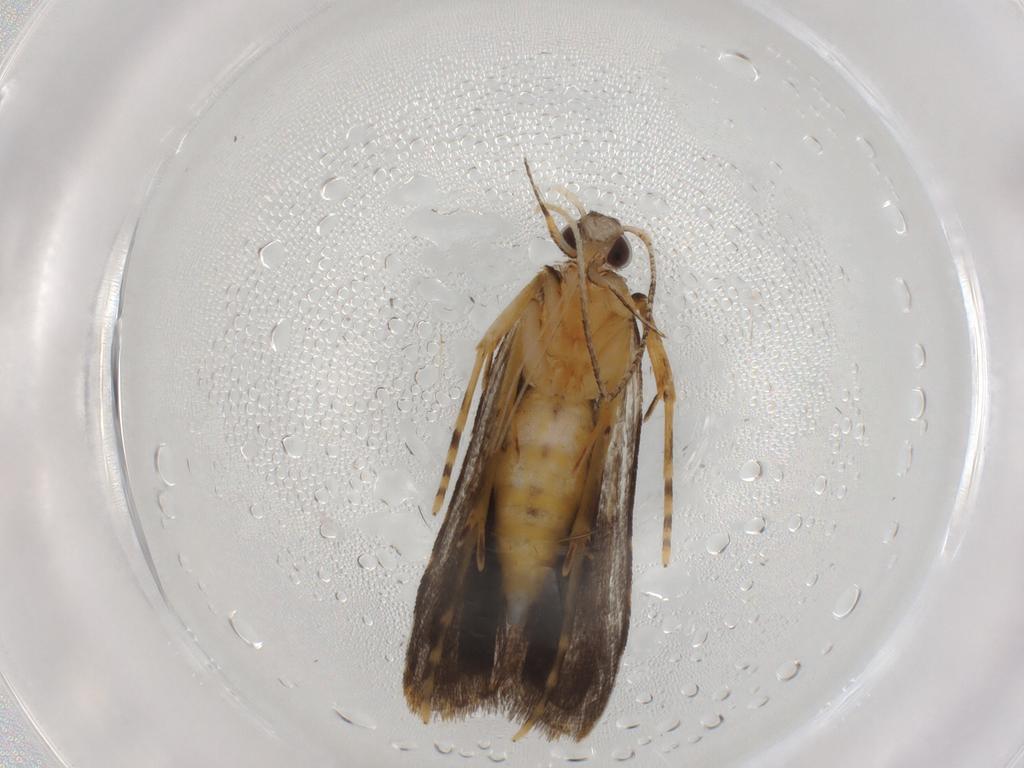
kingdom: Animalia
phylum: Arthropoda
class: Insecta
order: Lepidoptera
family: Cosmopterigidae
